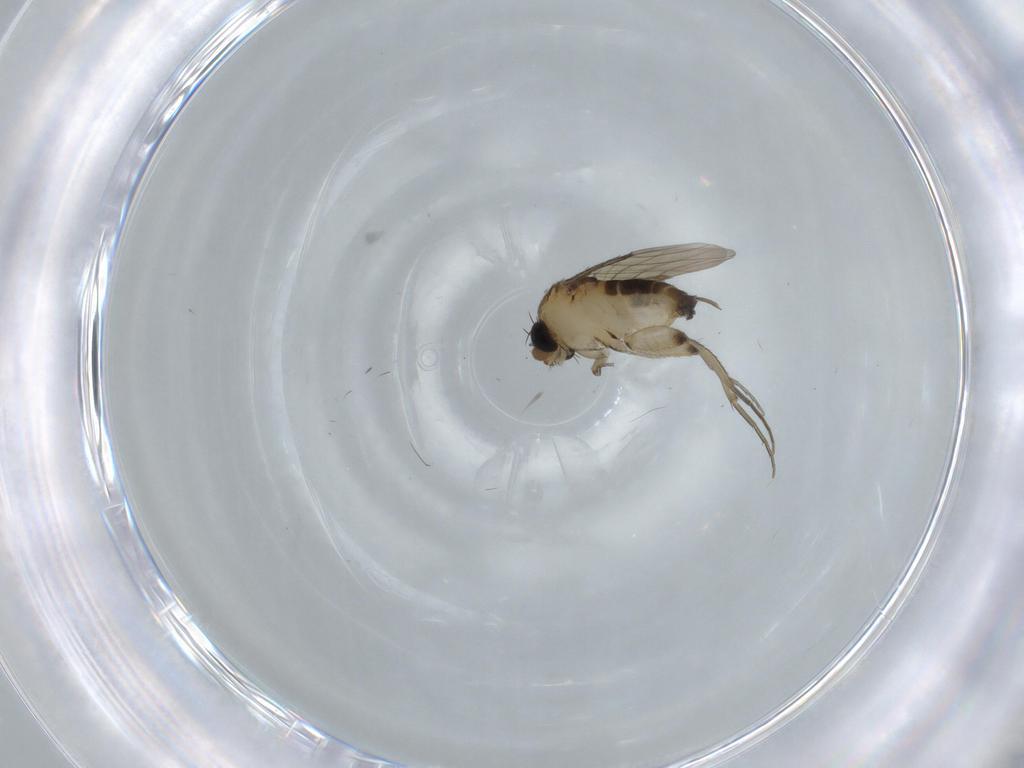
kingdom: Animalia
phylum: Arthropoda
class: Insecta
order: Diptera
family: Phoridae
